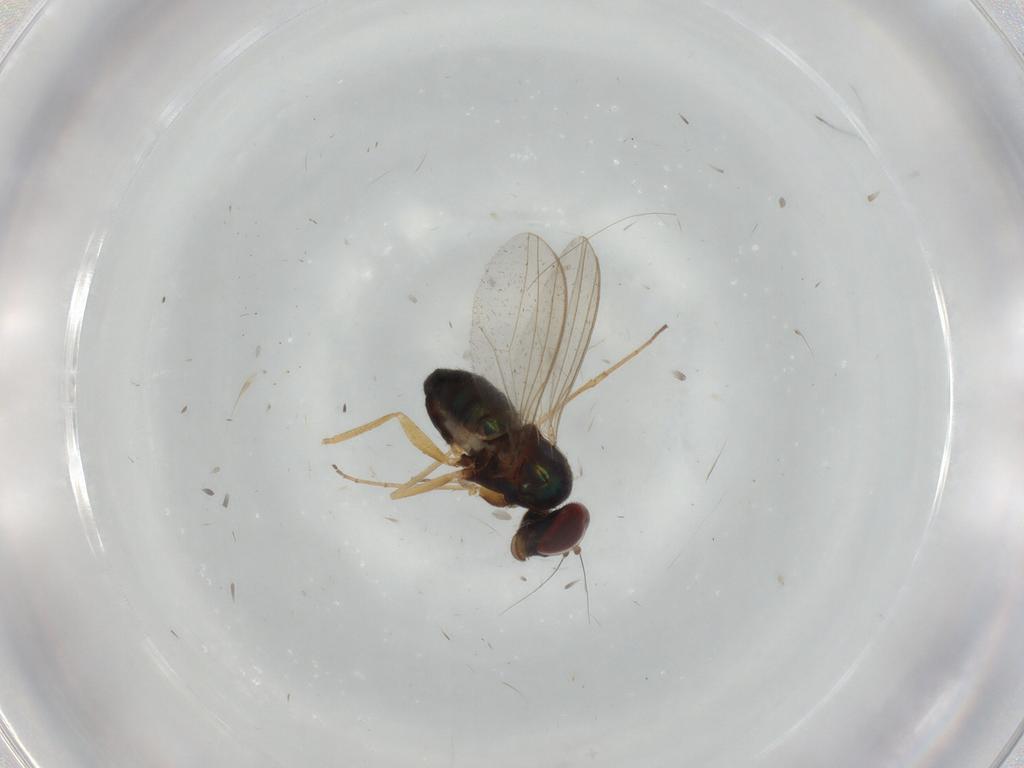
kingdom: Animalia
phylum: Arthropoda
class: Insecta
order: Diptera
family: Dolichopodidae
